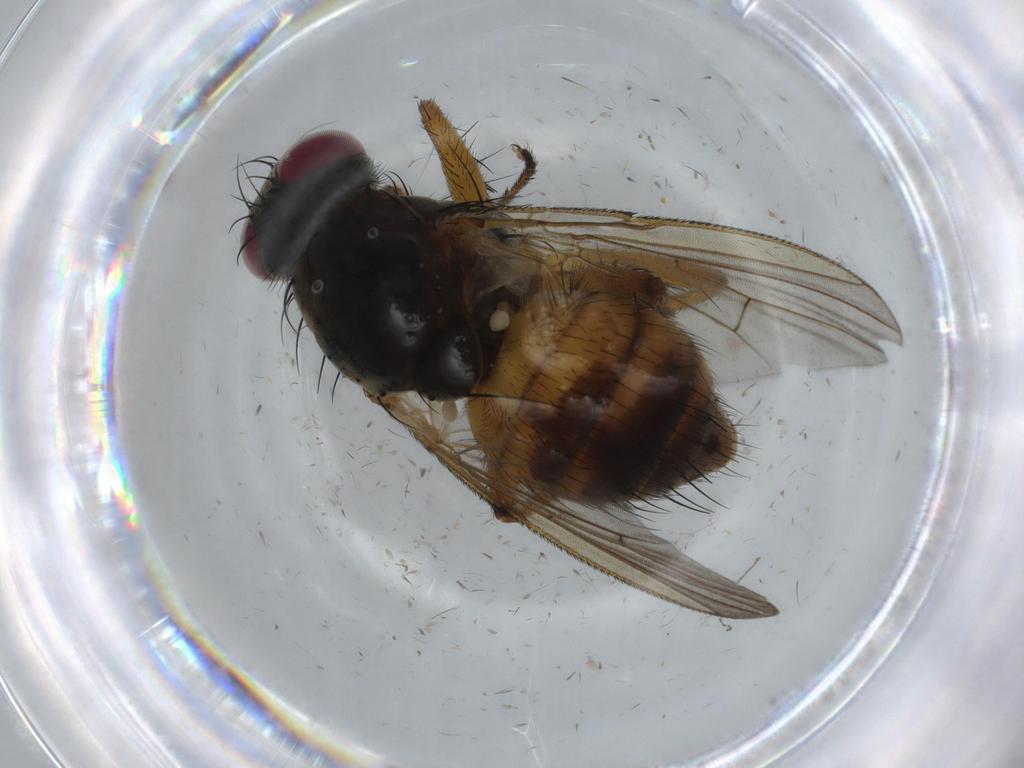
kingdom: Animalia
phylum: Arthropoda
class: Insecta
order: Diptera
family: Muscidae
